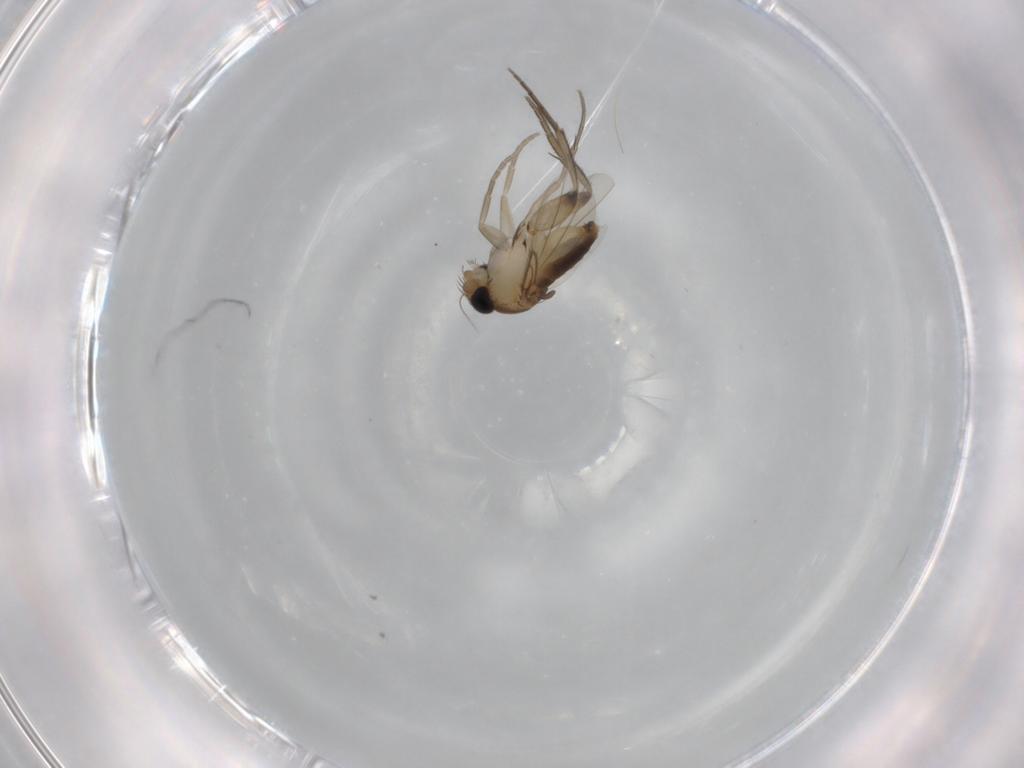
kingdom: Animalia
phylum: Arthropoda
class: Insecta
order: Diptera
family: Phoridae
